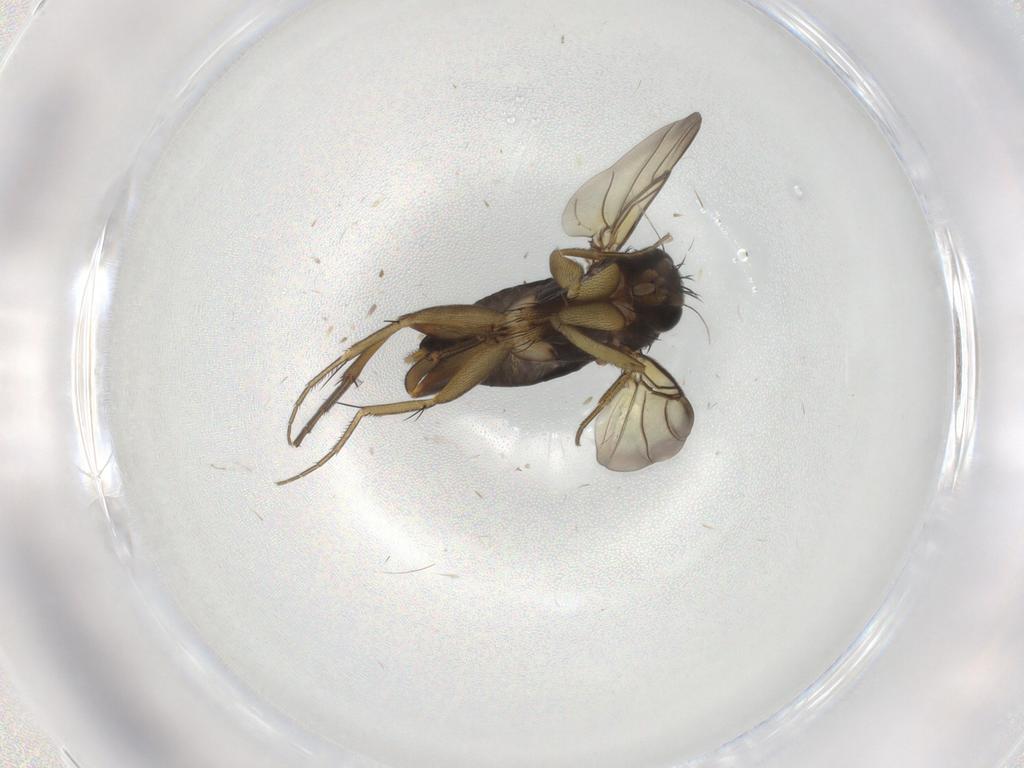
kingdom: Animalia
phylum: Arthropoda
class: Insecta
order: Diptera
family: Phoridae
